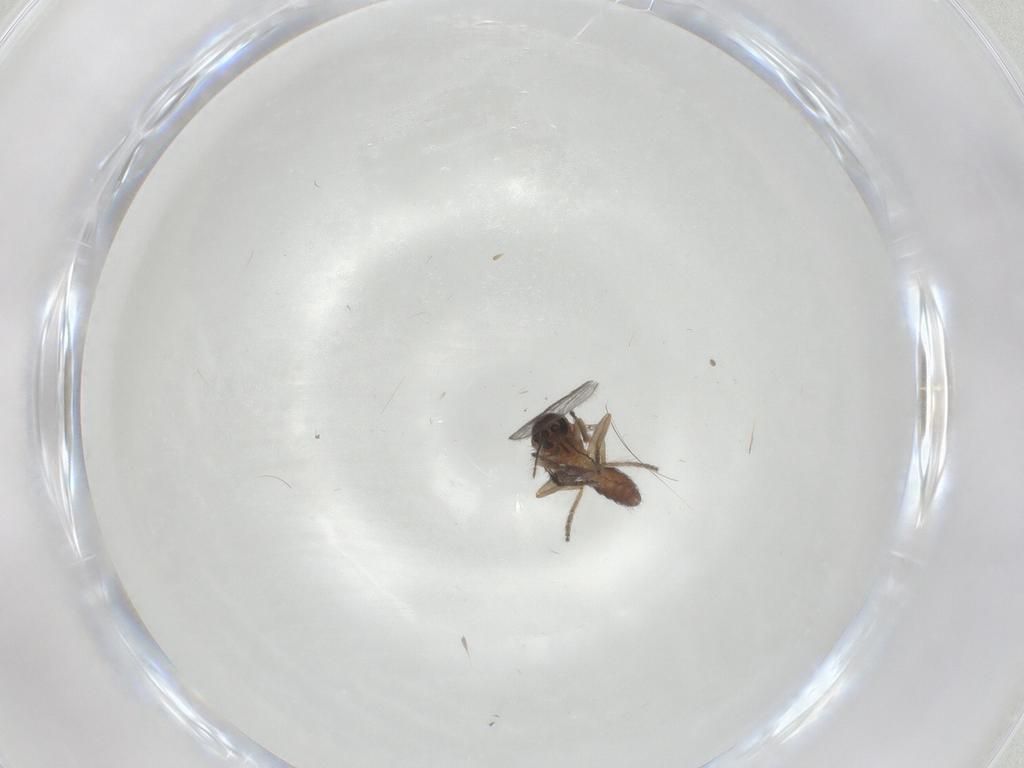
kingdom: Animalia
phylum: Arthropoda
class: Insecta
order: Diptera
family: Ceratopogonidae
